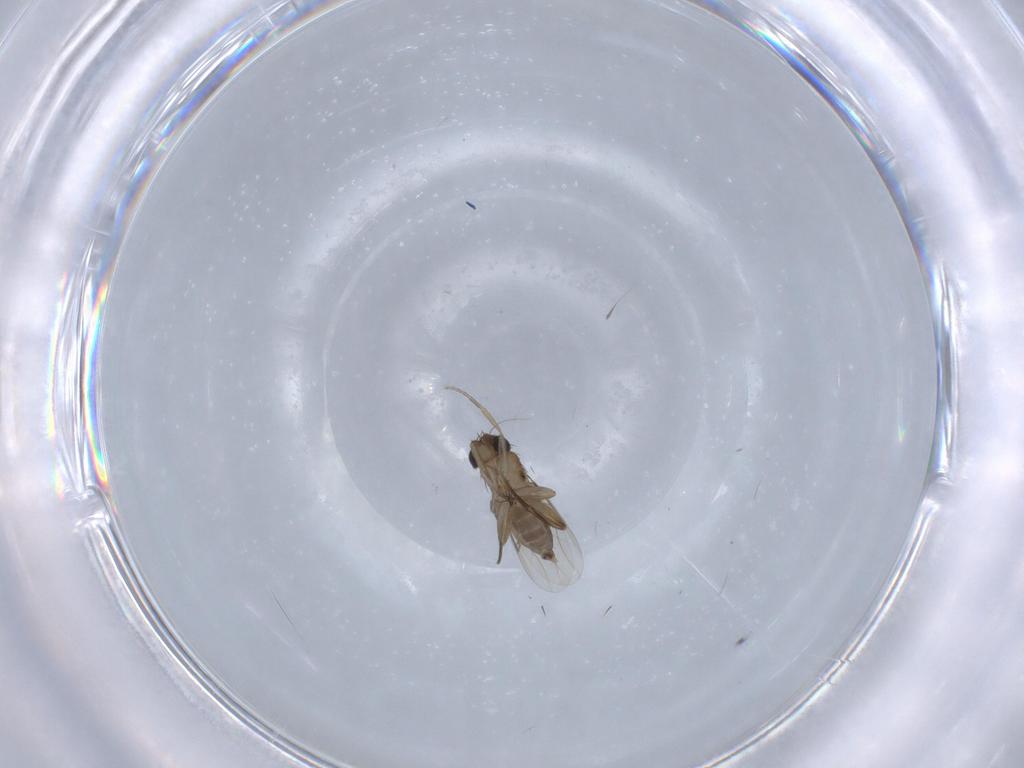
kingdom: Animalia
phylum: Arthropoda
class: Insecta
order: Diptera
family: Phoridae
